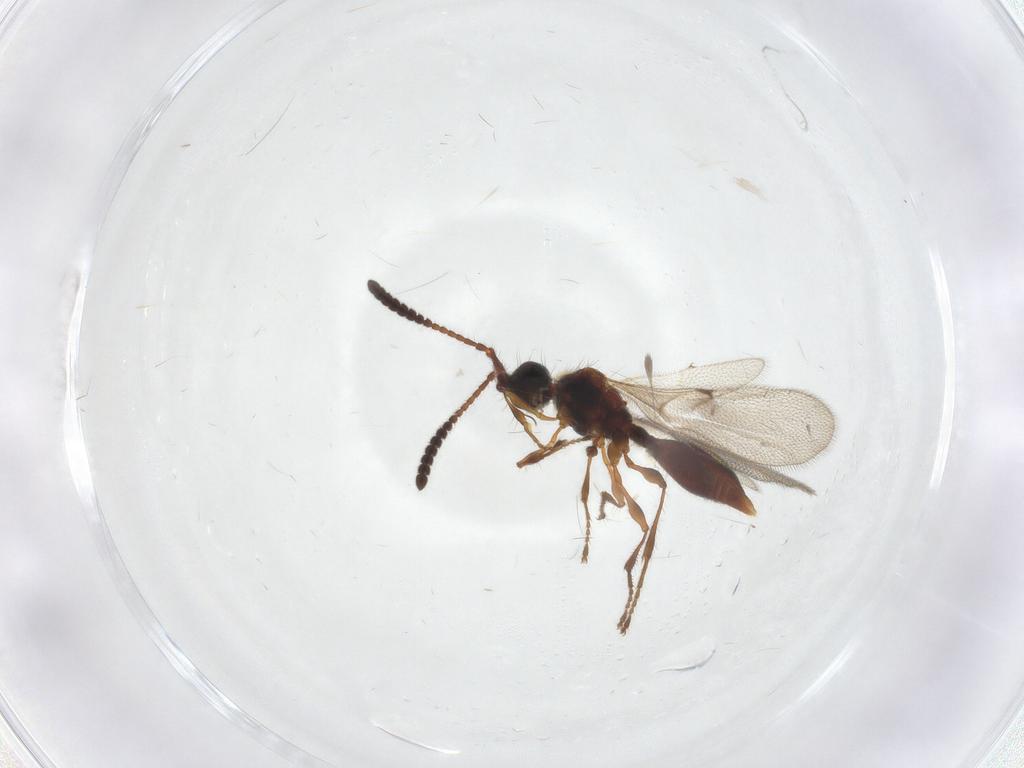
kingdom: Animalia
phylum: Arthropoda
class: Insecta
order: Hymenoptera
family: Diapriidae
